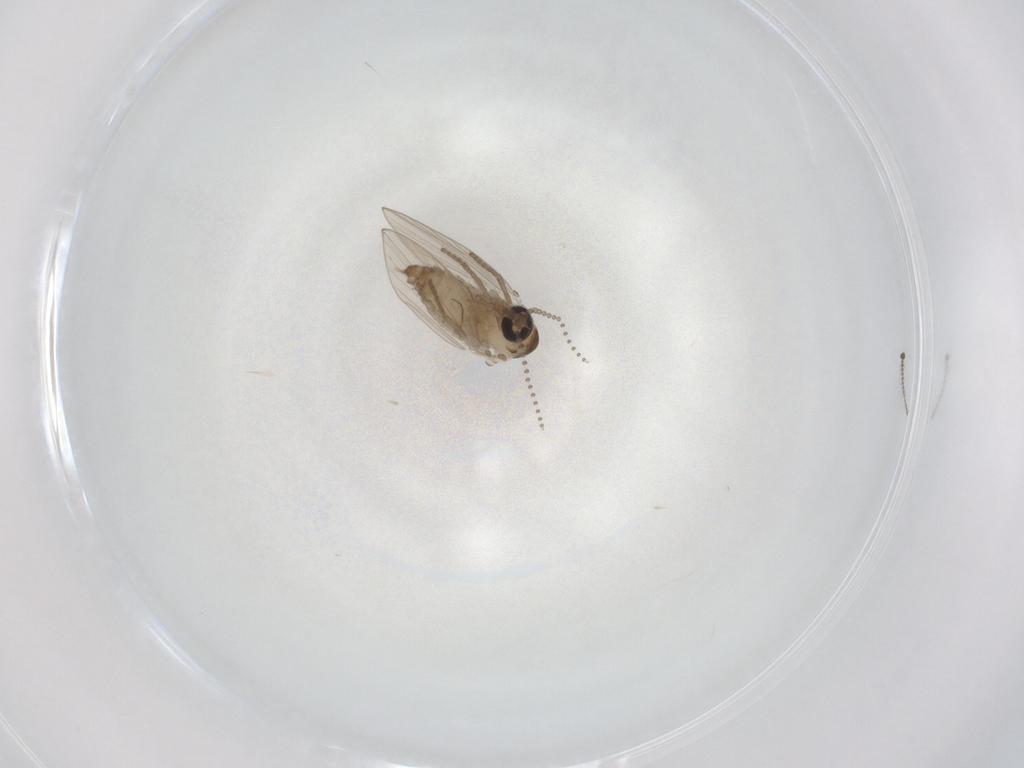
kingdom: Animalia
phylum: Arthropoda
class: Insecta
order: Diptera
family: Psychodidae
